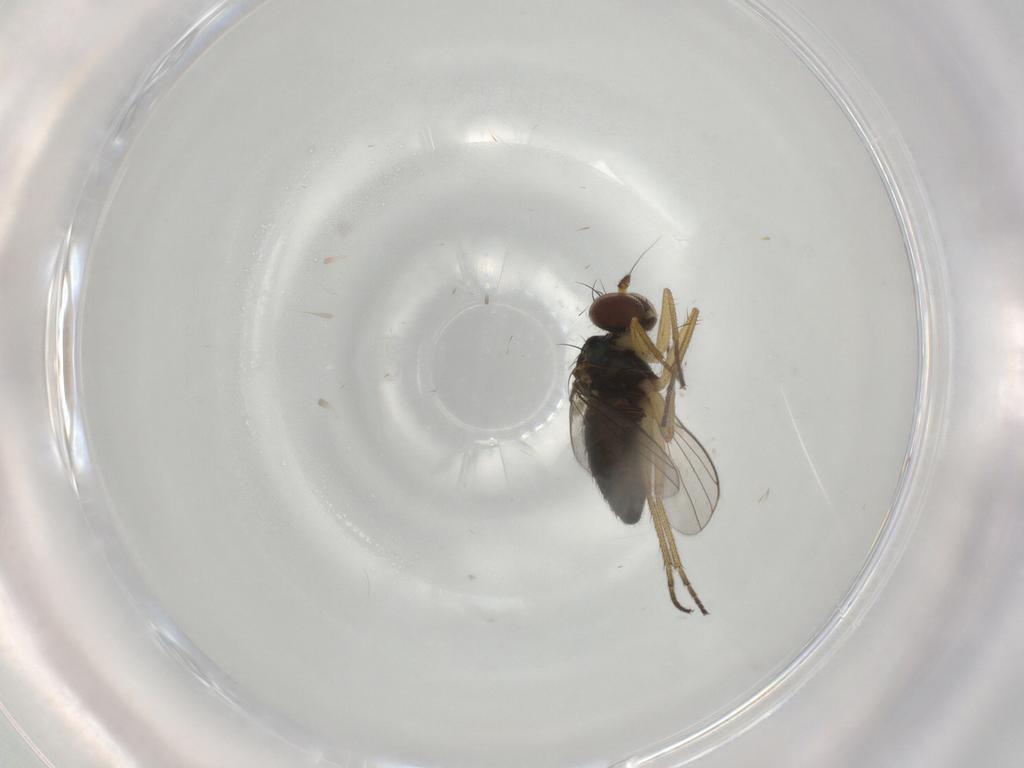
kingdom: Animalia
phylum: Arthropoda
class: Insecta
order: Diptera
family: Dolichopodidae
